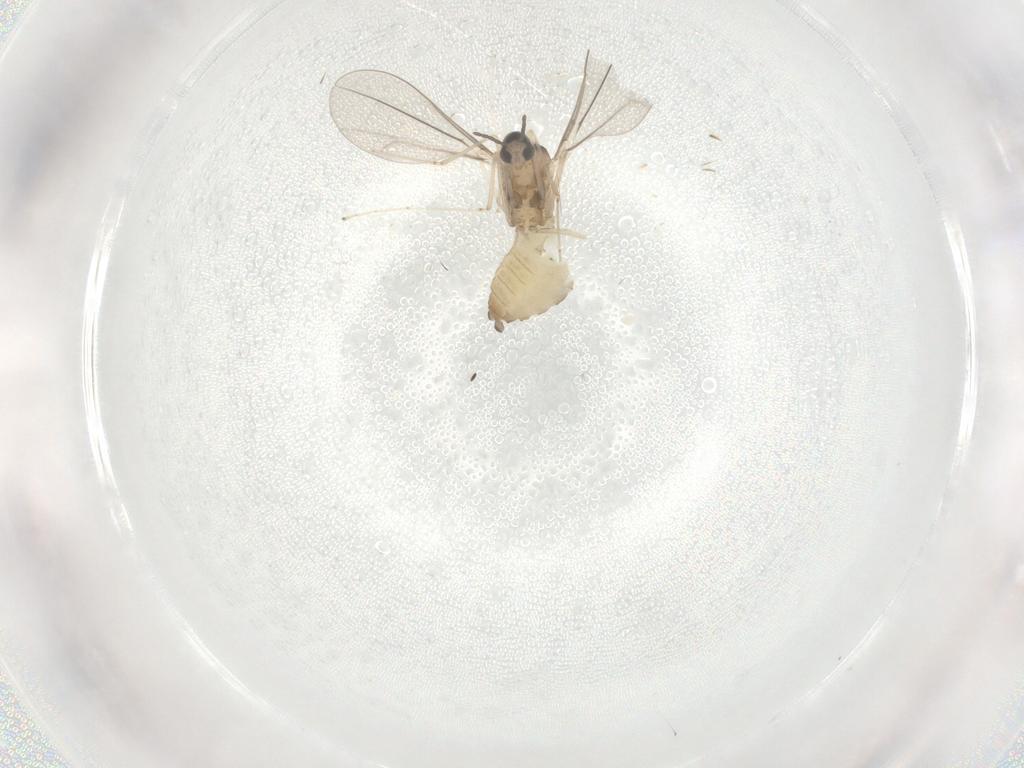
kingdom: Animalia
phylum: Arthropoda
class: Insecta
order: Diptera
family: Cecidomyiidae
